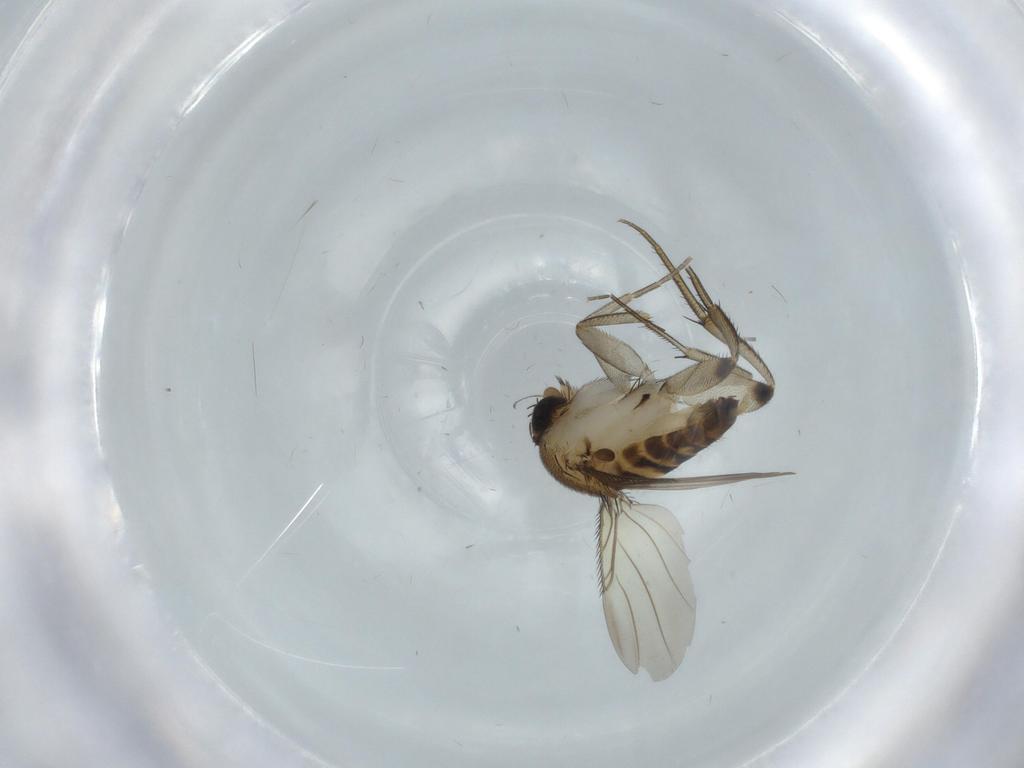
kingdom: Animalia
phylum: Arthropoda
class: Insecta
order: Diptera
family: Phoridae
